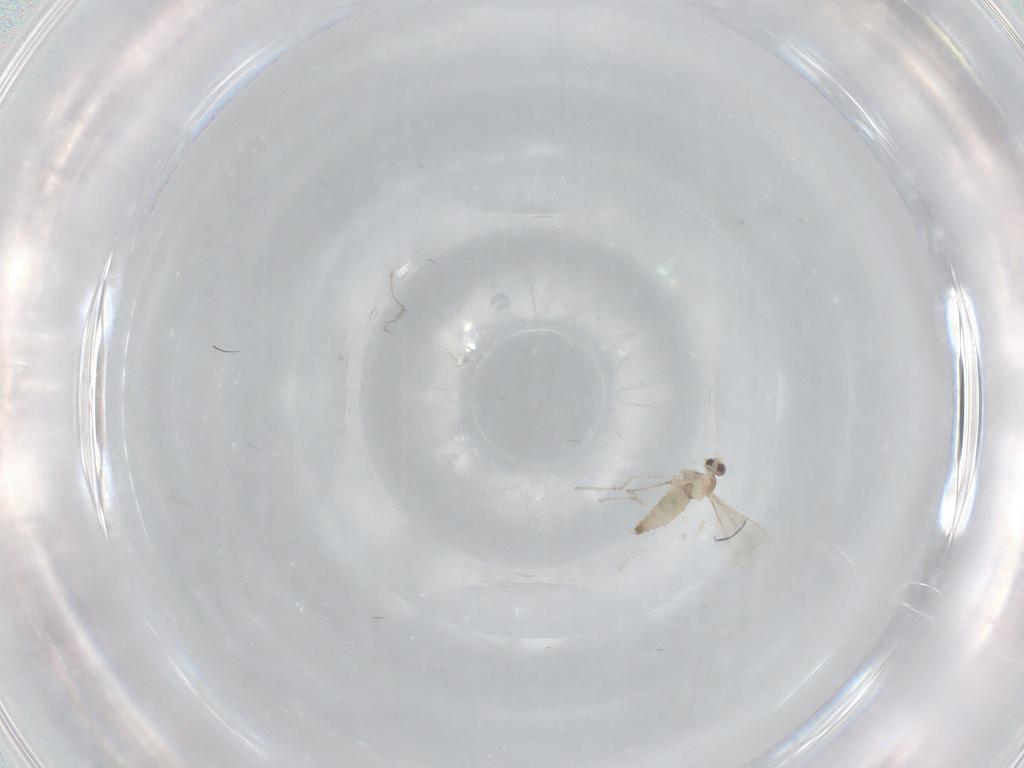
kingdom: Animalia
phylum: Arthropoda
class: Insecta
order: Diptera
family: Cecidomyiidae
